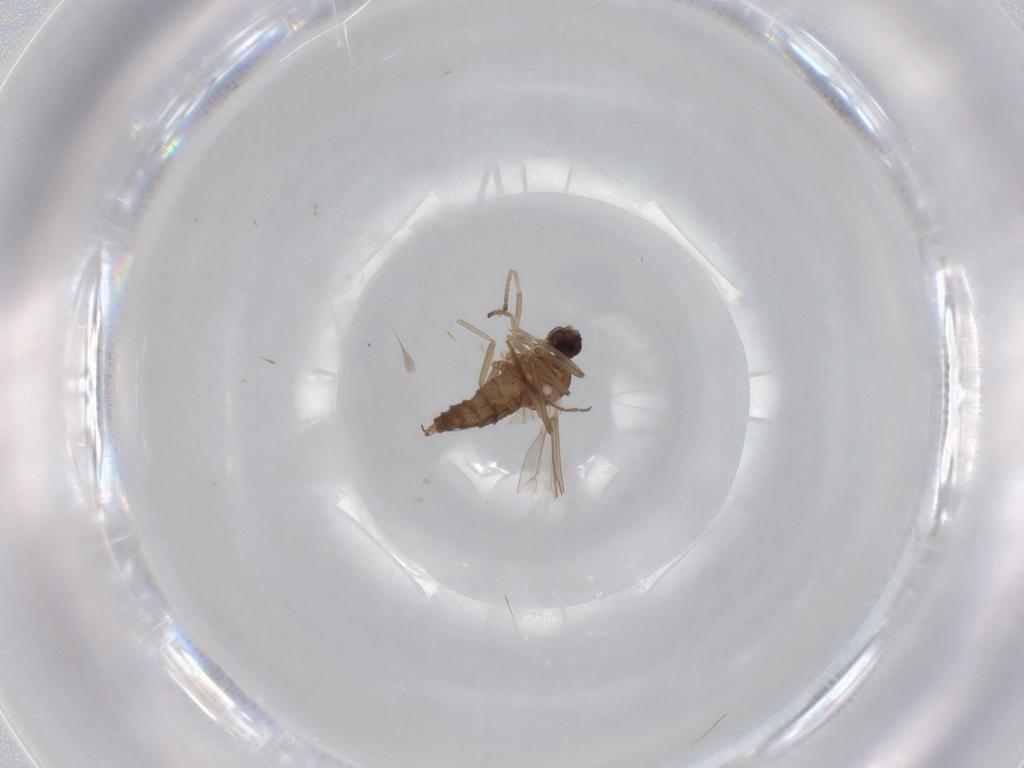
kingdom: Animalia
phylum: Arthropoda
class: Insecta
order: Diptera
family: Cecidomyiidae
